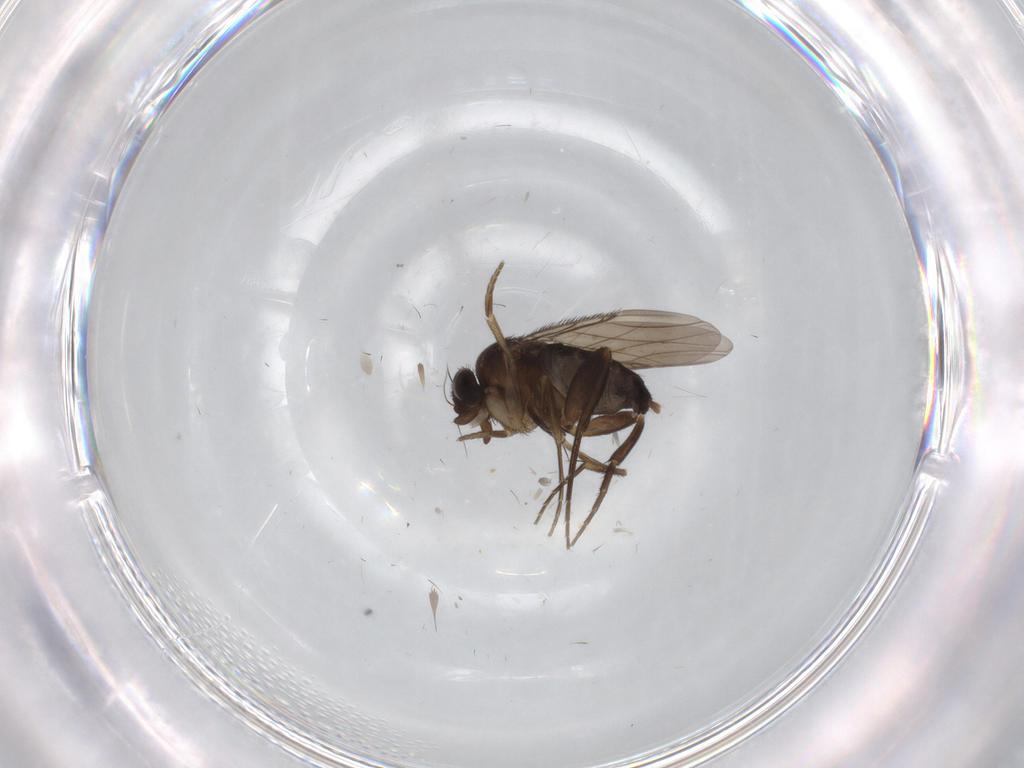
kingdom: Animalia
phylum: Arthropoda
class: Insecta
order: Diptera
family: Phoridae
